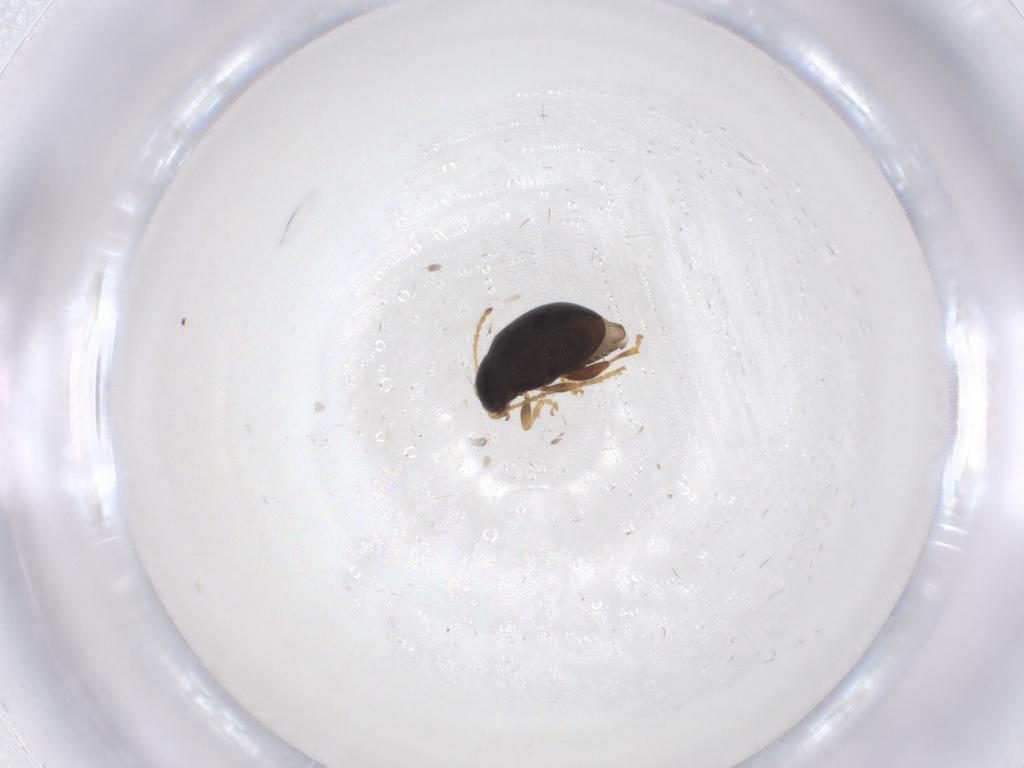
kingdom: Animalia
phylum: Arthropoda
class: Insecta
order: Coleoptera
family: Chrysomelidae
